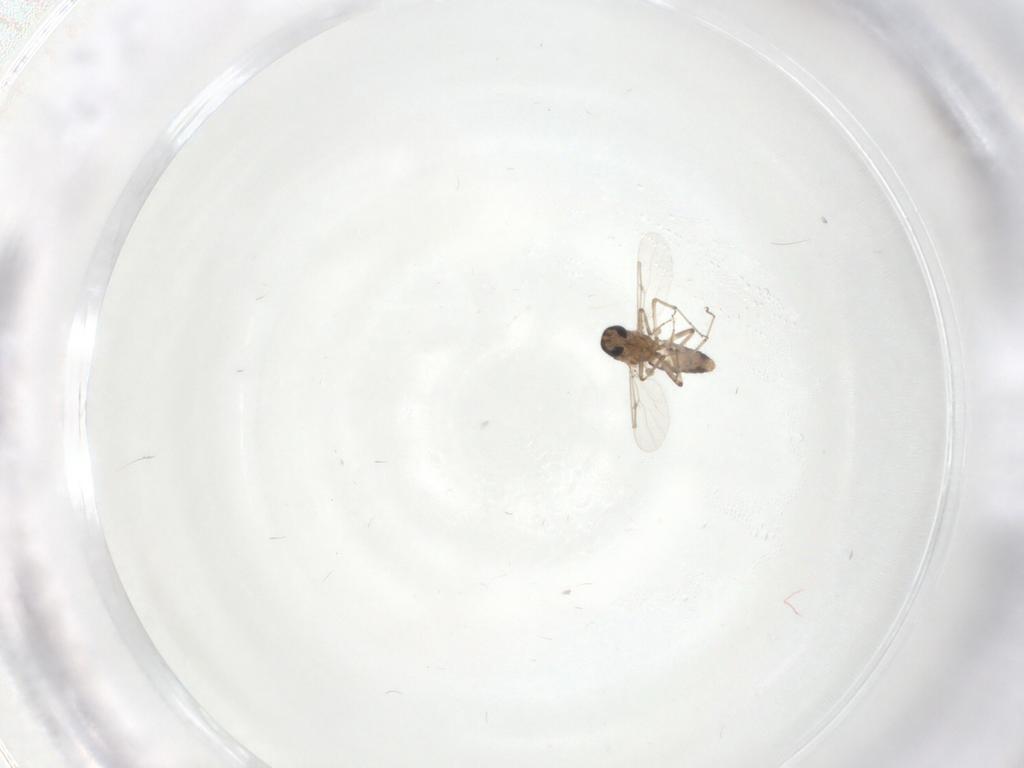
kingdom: Animalia
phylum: Arthropoda
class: Insecta
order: Diptera
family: Ceratopogonidae
